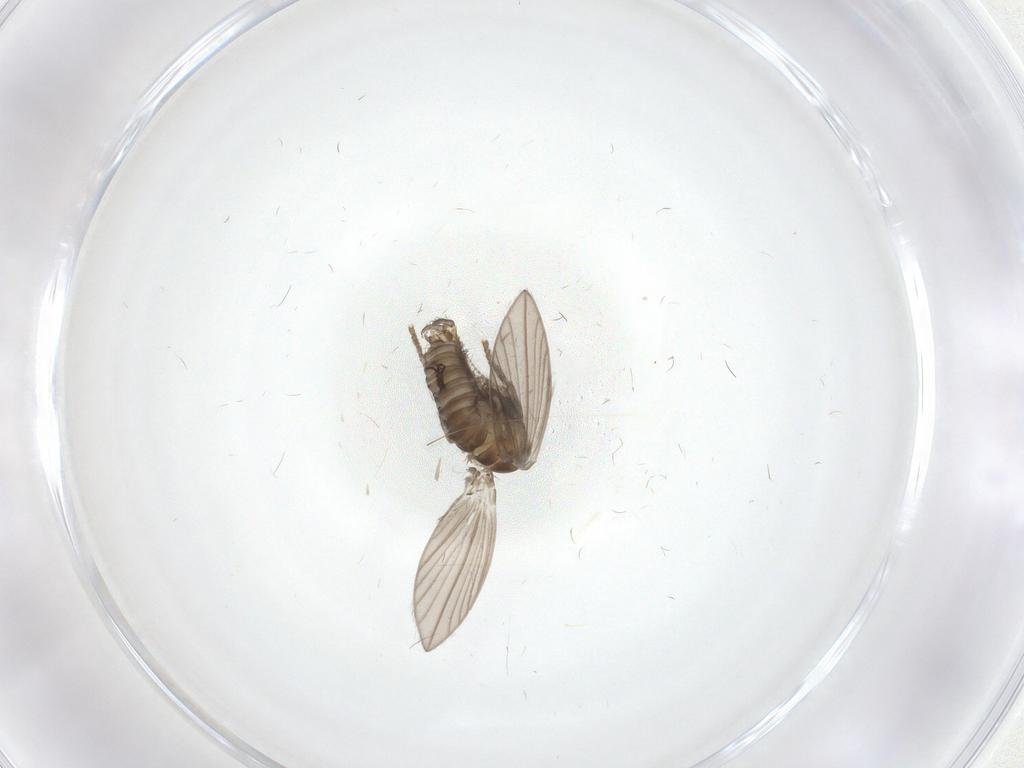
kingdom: Animalia
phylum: Arthropoda
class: Insecta
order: Diptera
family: Psychodidae
